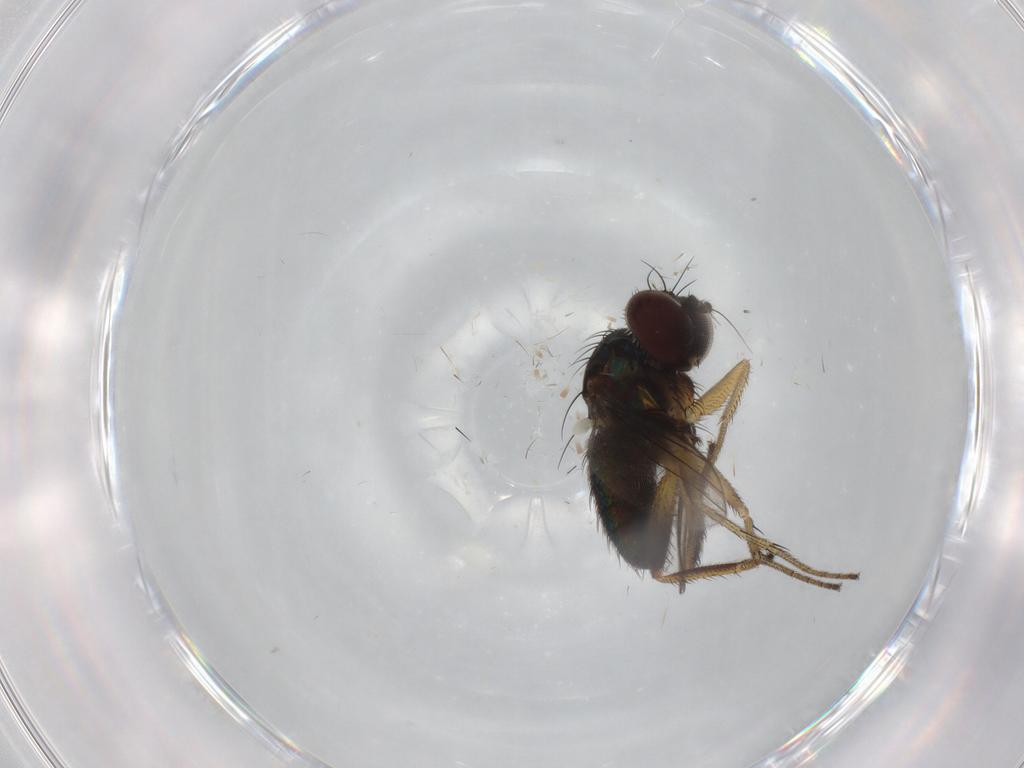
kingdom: Animalia
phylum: Arthropoda
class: Insecta
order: Diptera
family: Dolichopodidae
